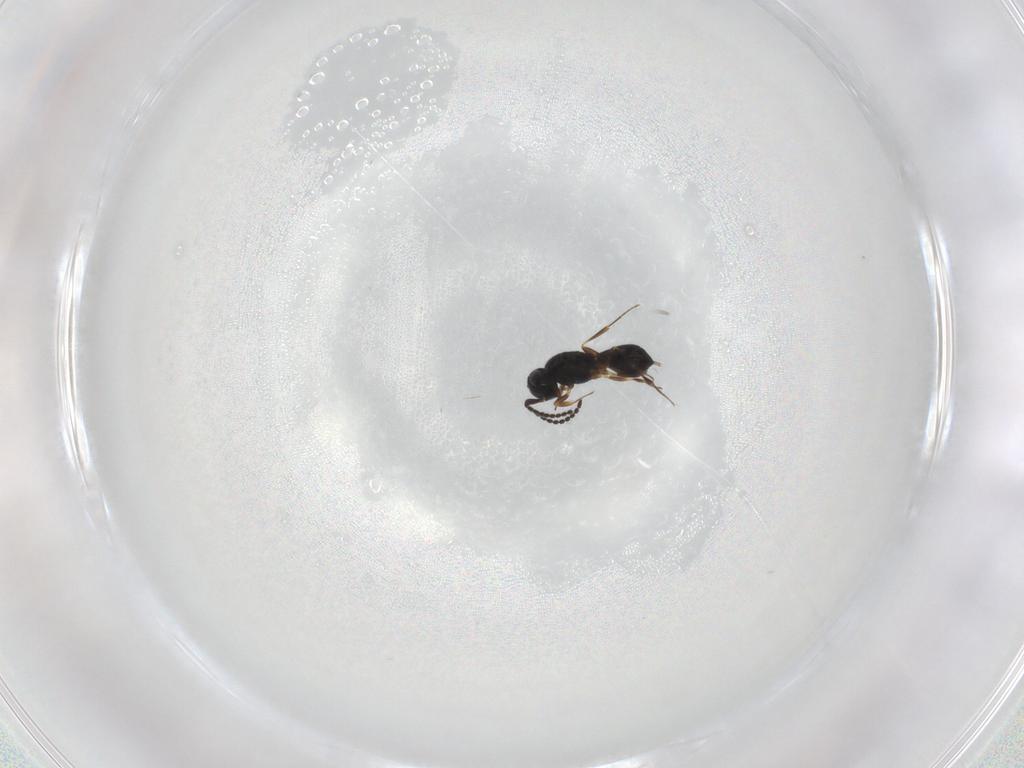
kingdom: Animalia
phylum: Arthropoda
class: Insecta
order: Hymenoptera
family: Scelionidae
